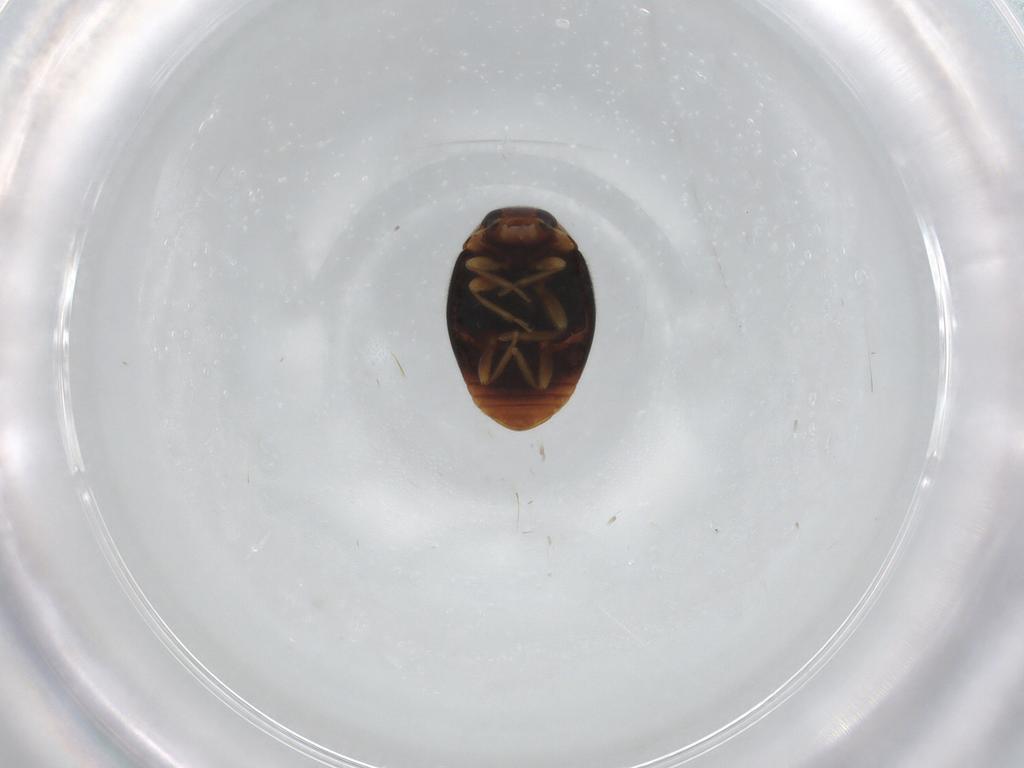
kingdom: Animalia
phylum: Arthropoda
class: Insecta
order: Coleoptera
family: Coccinellidae
